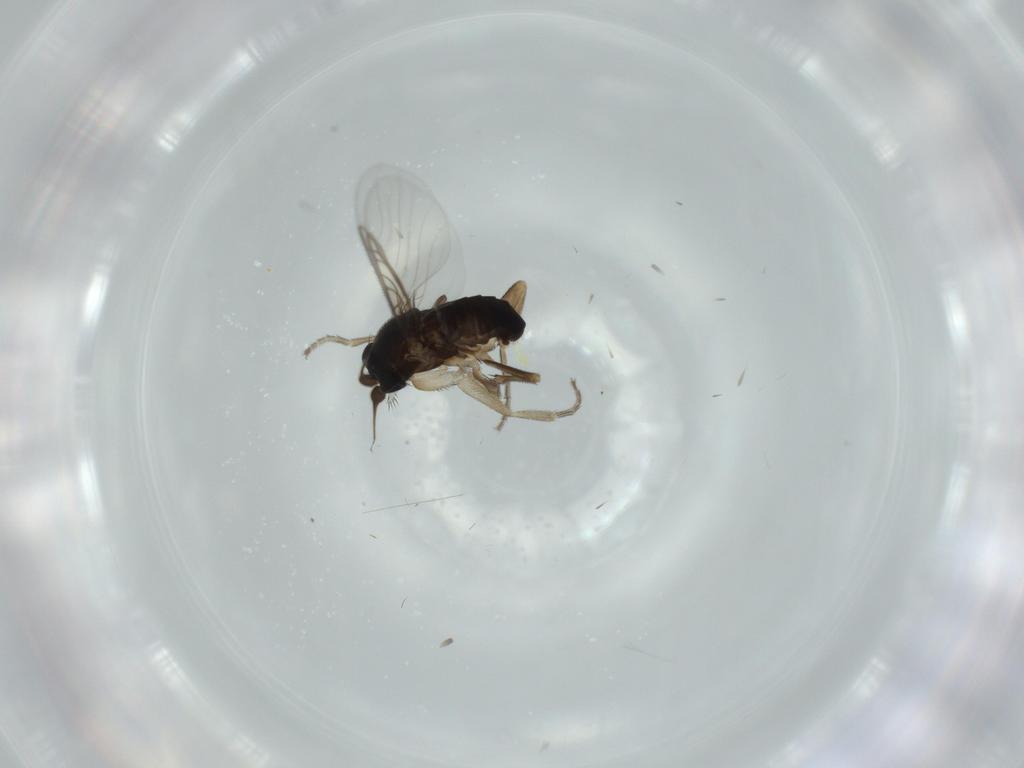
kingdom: Animalia
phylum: Arthropoda
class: Insecta
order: Diptera
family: Phoridae
